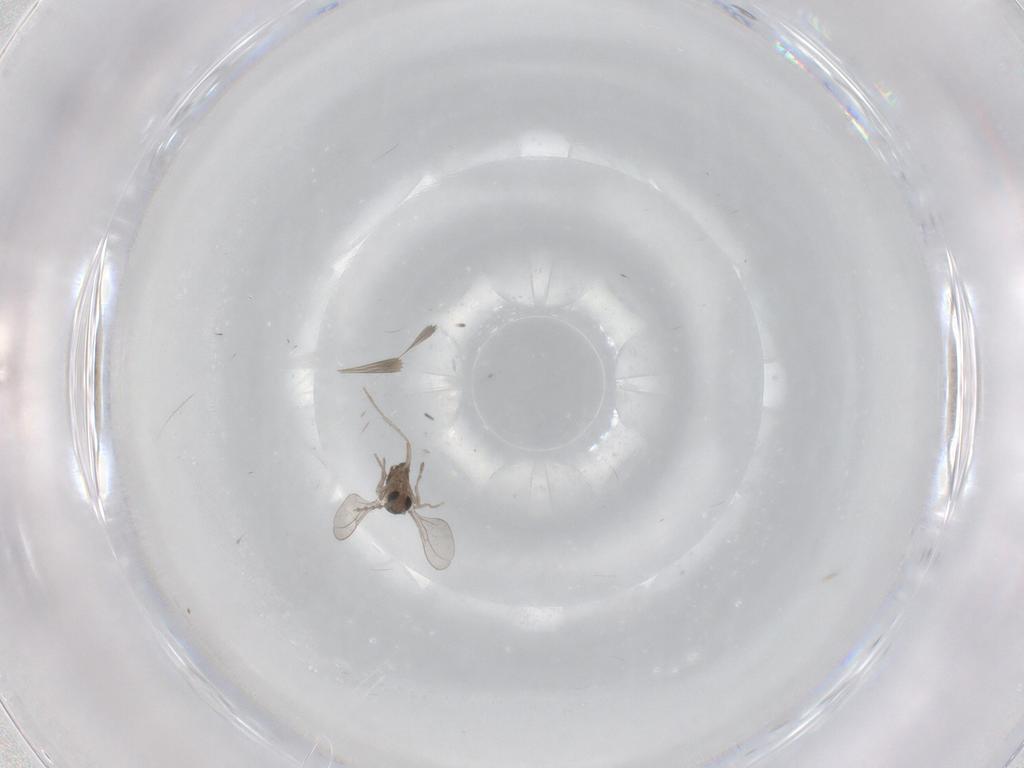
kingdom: Animalia
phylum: Arthropoda
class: Insecta
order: Diptera
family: Cecidomyiidae
